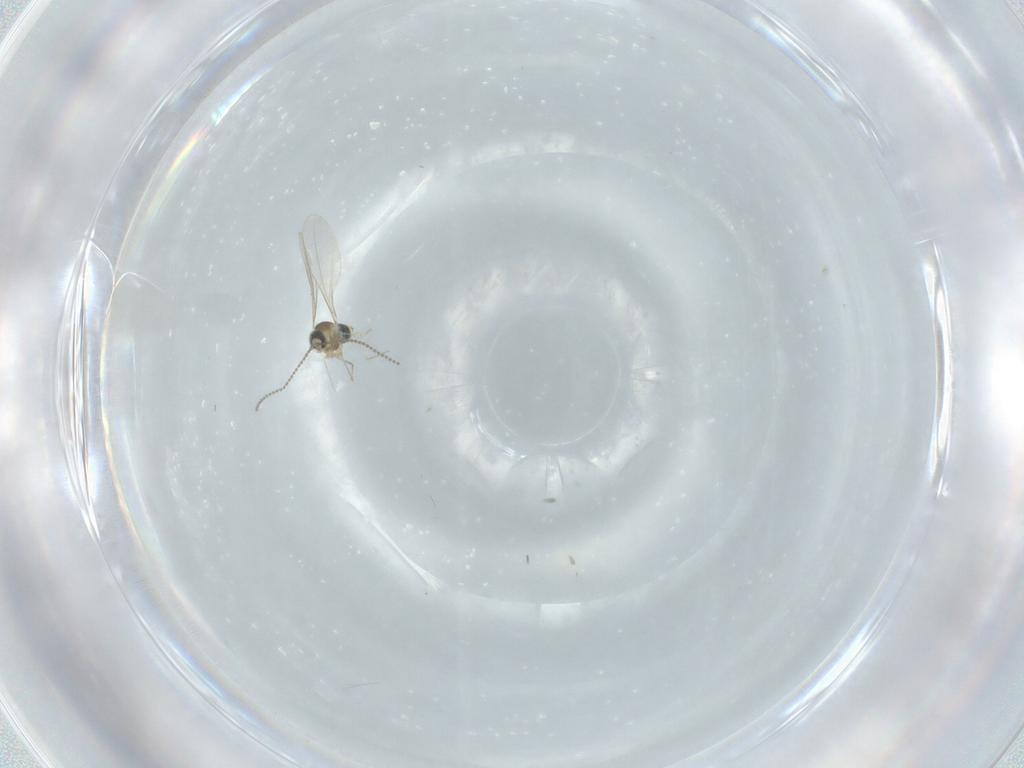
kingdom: Animalia
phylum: Arthropoda
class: Insecta
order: Diptera
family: Cecidomyiidae
